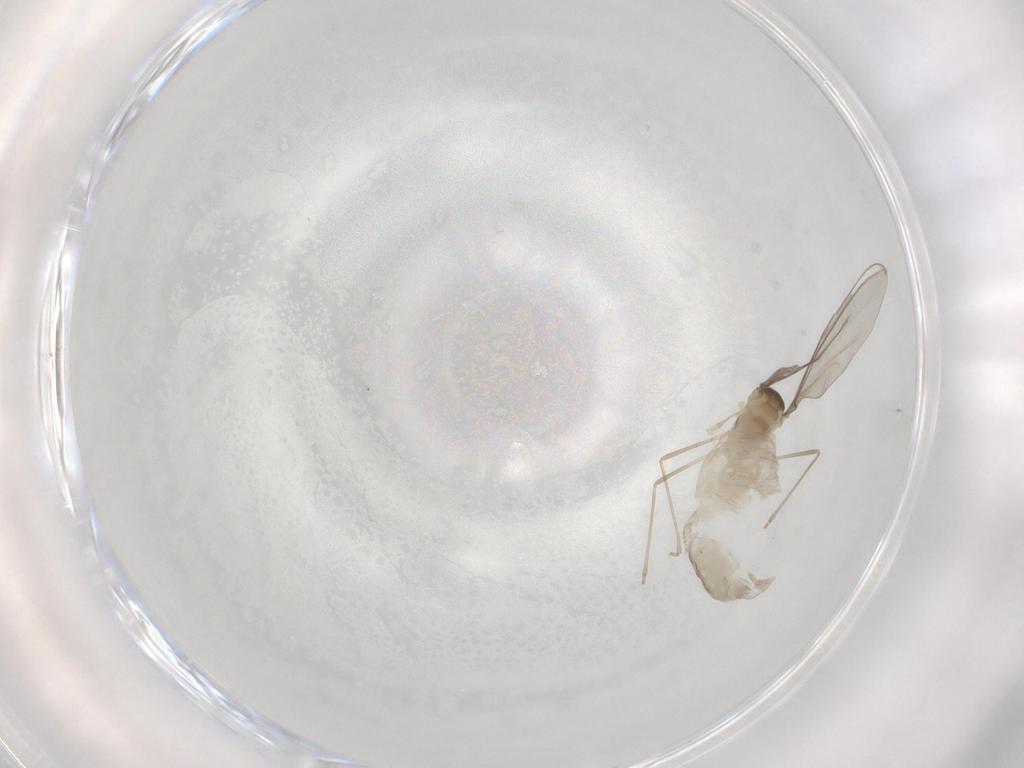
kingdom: Animalia
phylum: Arthropoda
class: Insecta
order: Diptera
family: Cecidomyiidae
